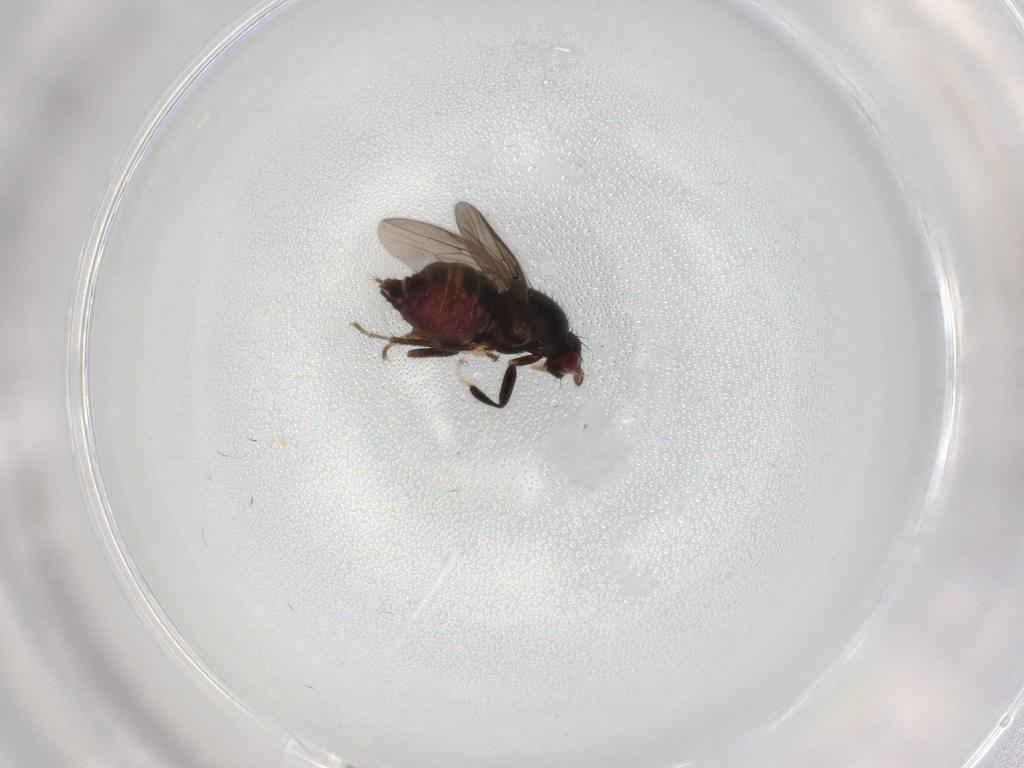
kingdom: Animalia
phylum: Arthropoda
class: Insecta
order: Diptera
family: Sphaeroceridae
